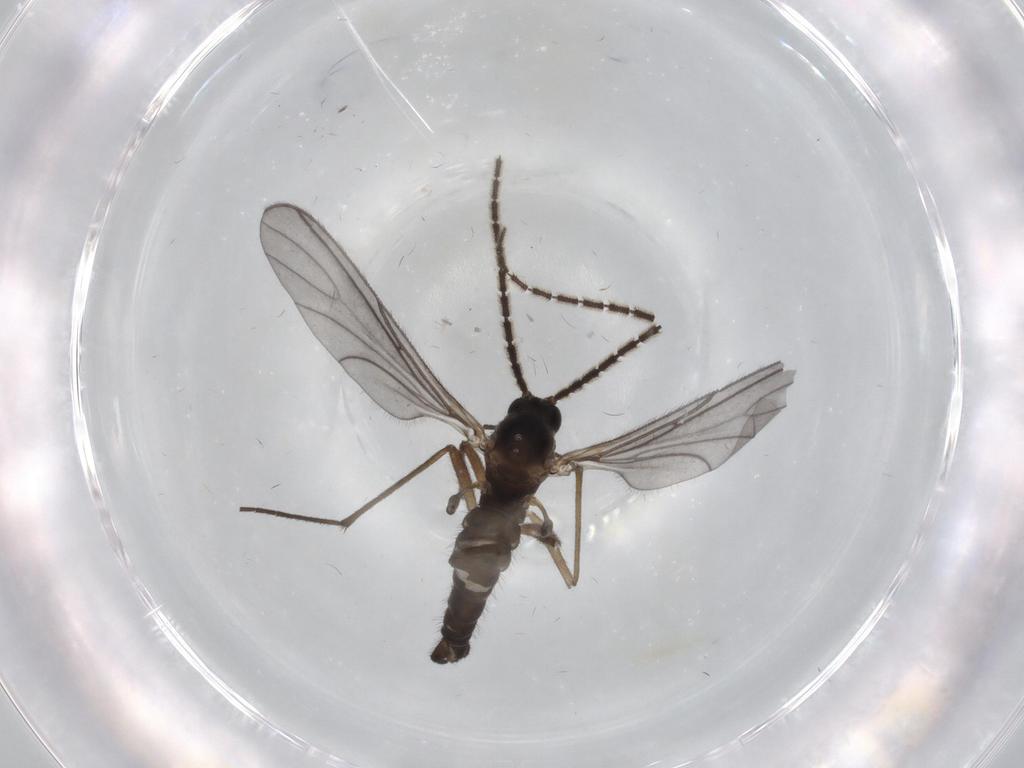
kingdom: Animalia
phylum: Arthropoda
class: Insecta
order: Diptera
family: Sciaridae
